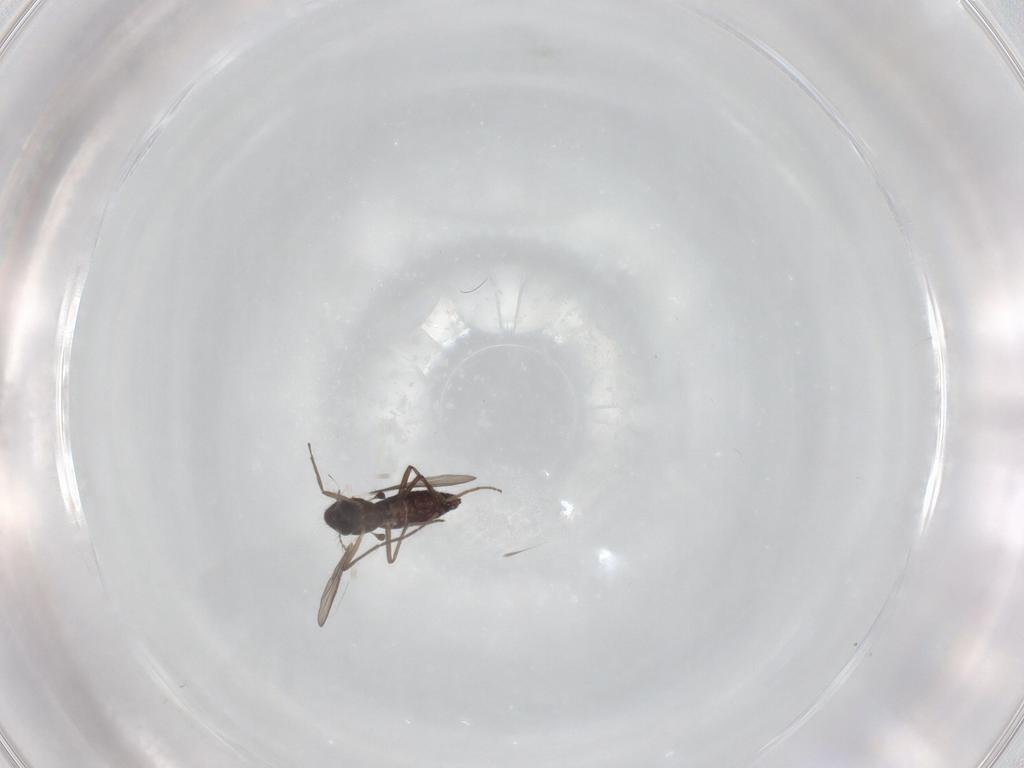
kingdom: Animalia
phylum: Arthropoda
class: Insecta
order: Diptera
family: Chironomidae
